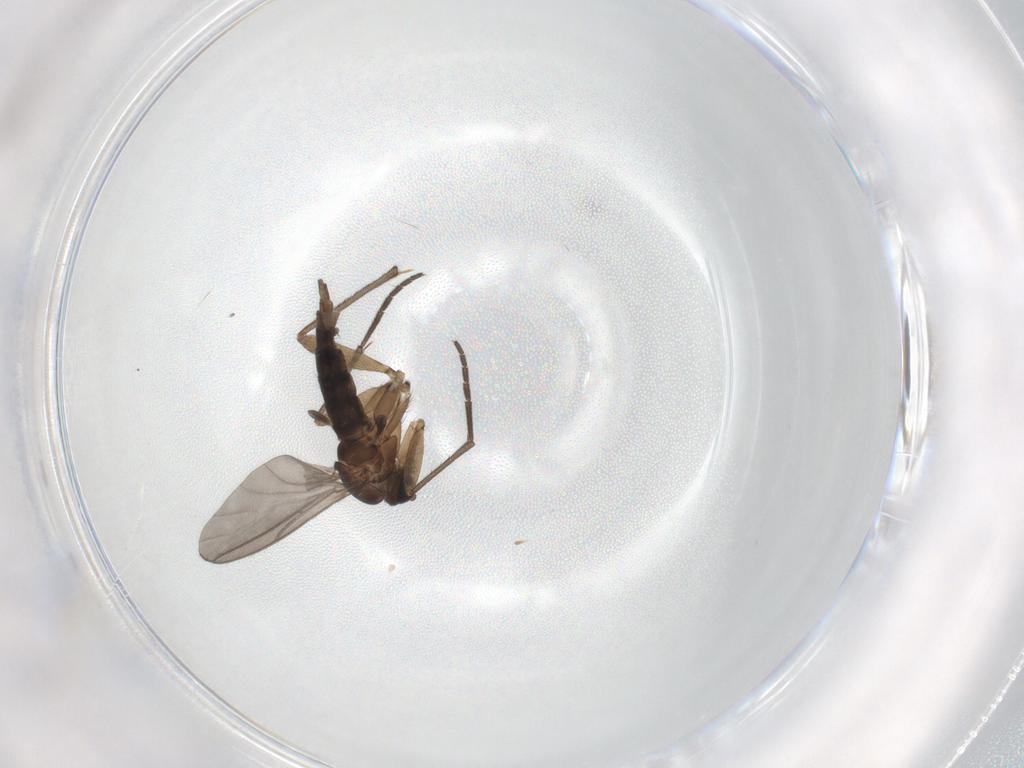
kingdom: Animalia
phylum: Arthropoda
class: Insecta
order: Diptera
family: Sciaridae
